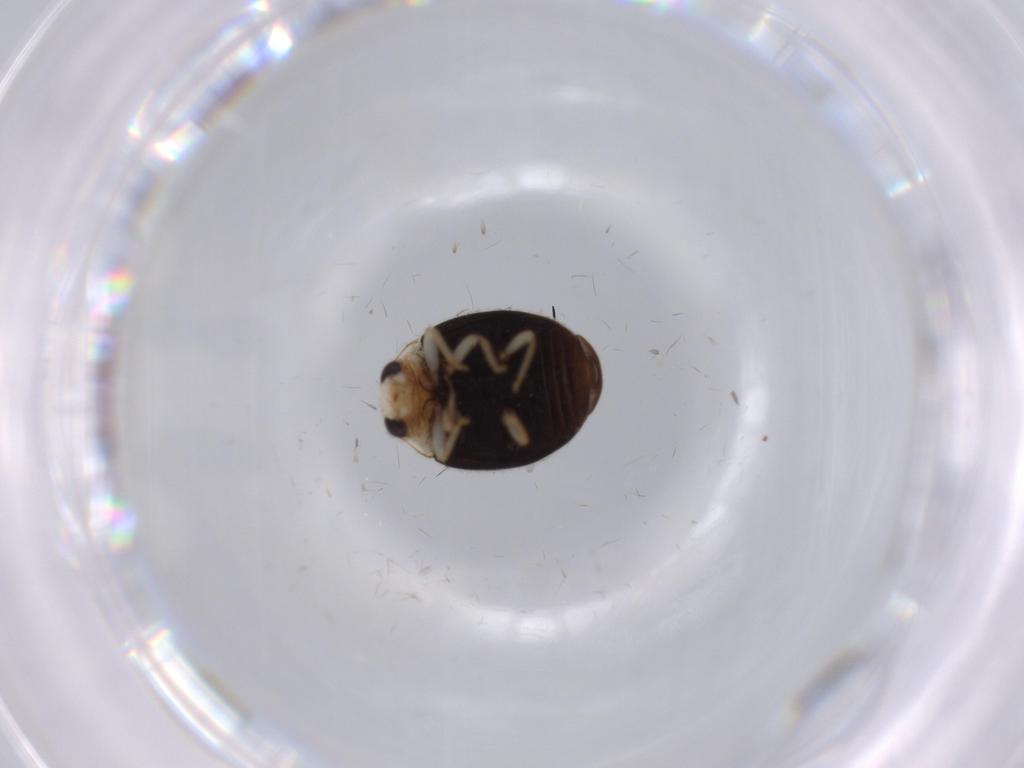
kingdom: Animalia
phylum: Arthropoda
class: Insecta
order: Coleoptera
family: Coccinellidae
